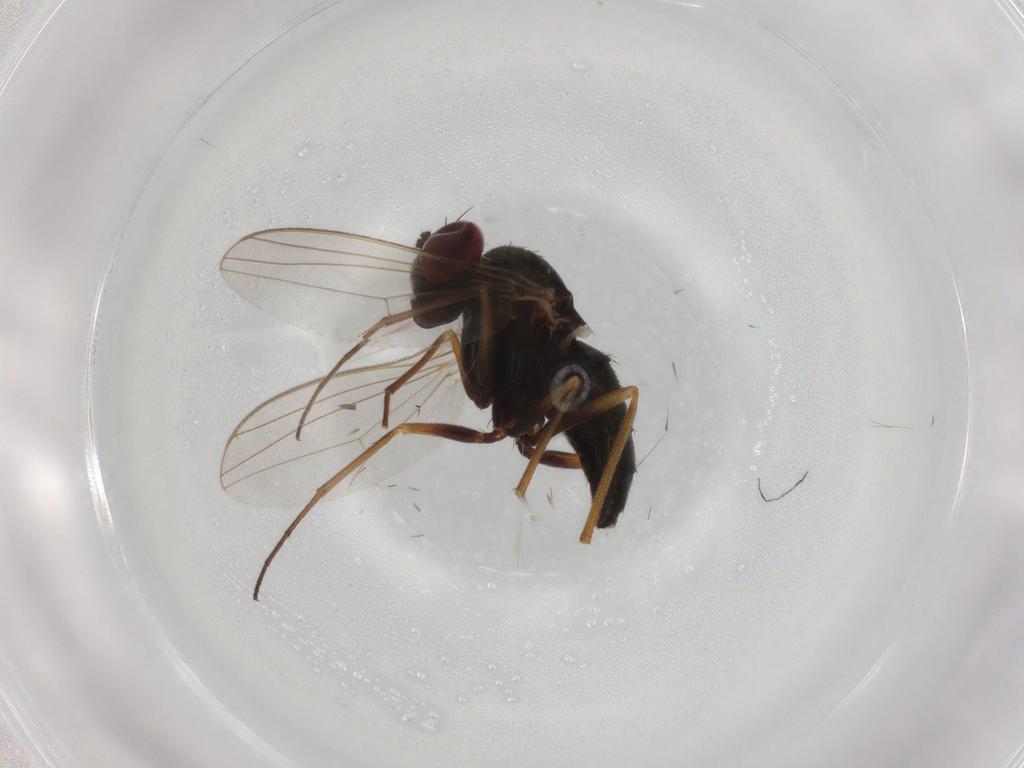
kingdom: Animalia
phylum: Arthropoda
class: Insecta
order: Diptera
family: Dolichopodidae
